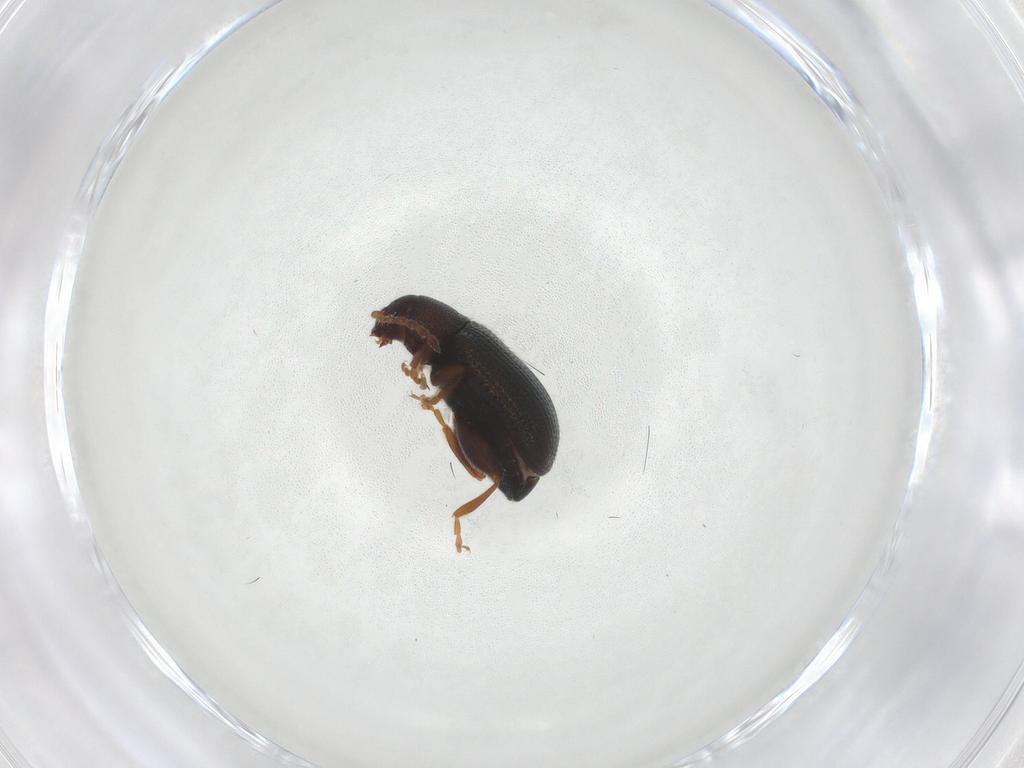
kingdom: Animalia
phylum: Arthropoda
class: Insecta
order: Coleoptera
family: Chrysomelidae
